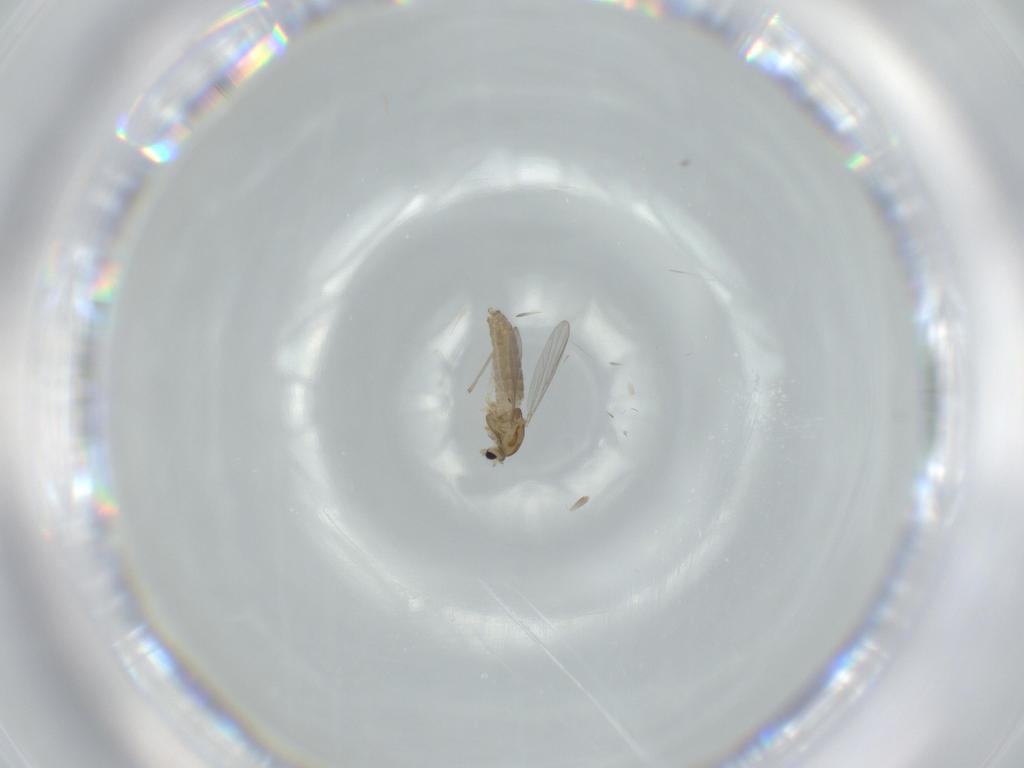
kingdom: Animalia
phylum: Arthropoda
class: Insecta
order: Diptera
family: Chironomidae
